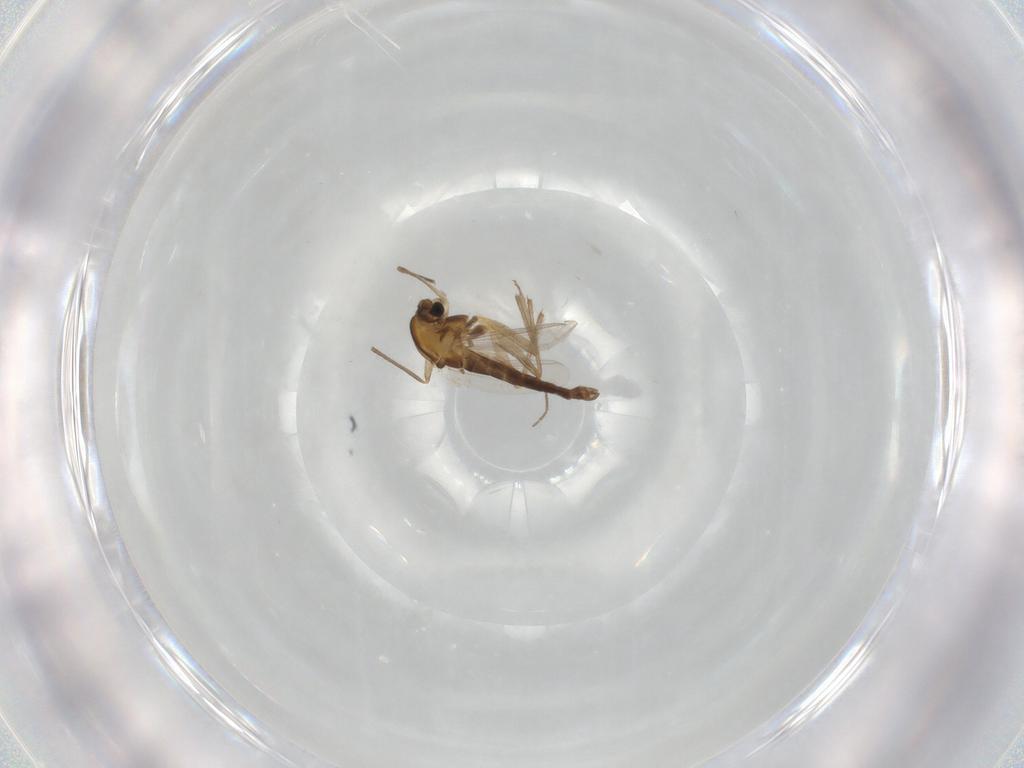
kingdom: Animalia
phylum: Arthropoda
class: Insecta
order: Diptera
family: Chironomidae
